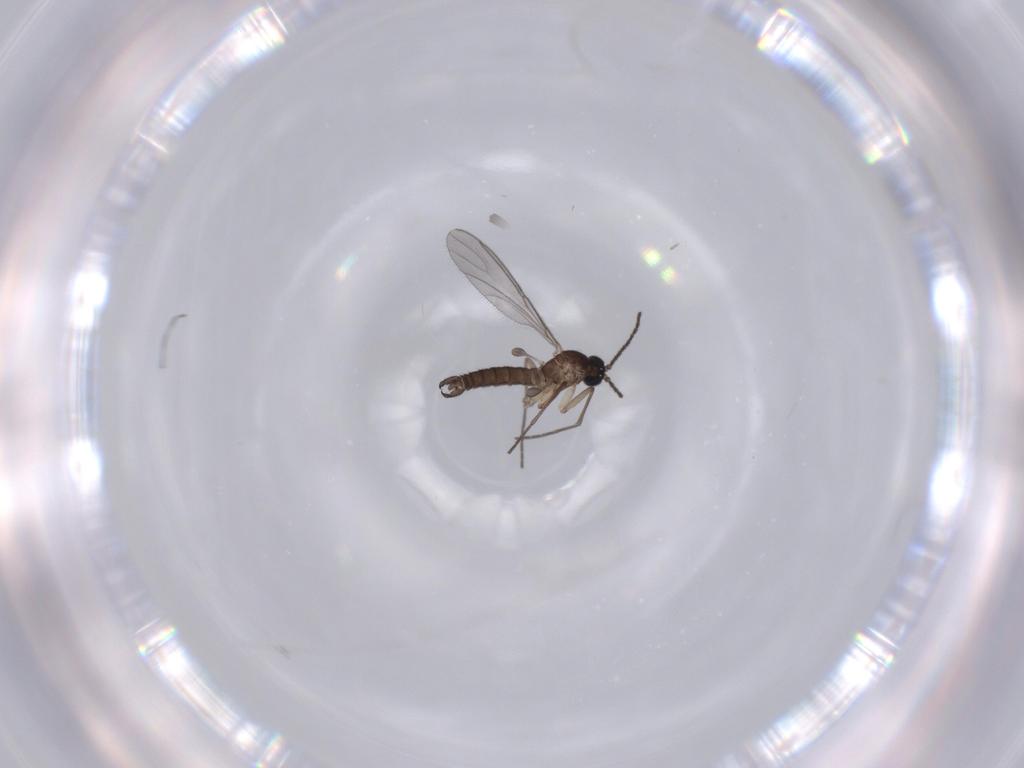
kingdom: Animalia
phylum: Arthropoda
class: Insecta
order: Diptera
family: Sciaridae
